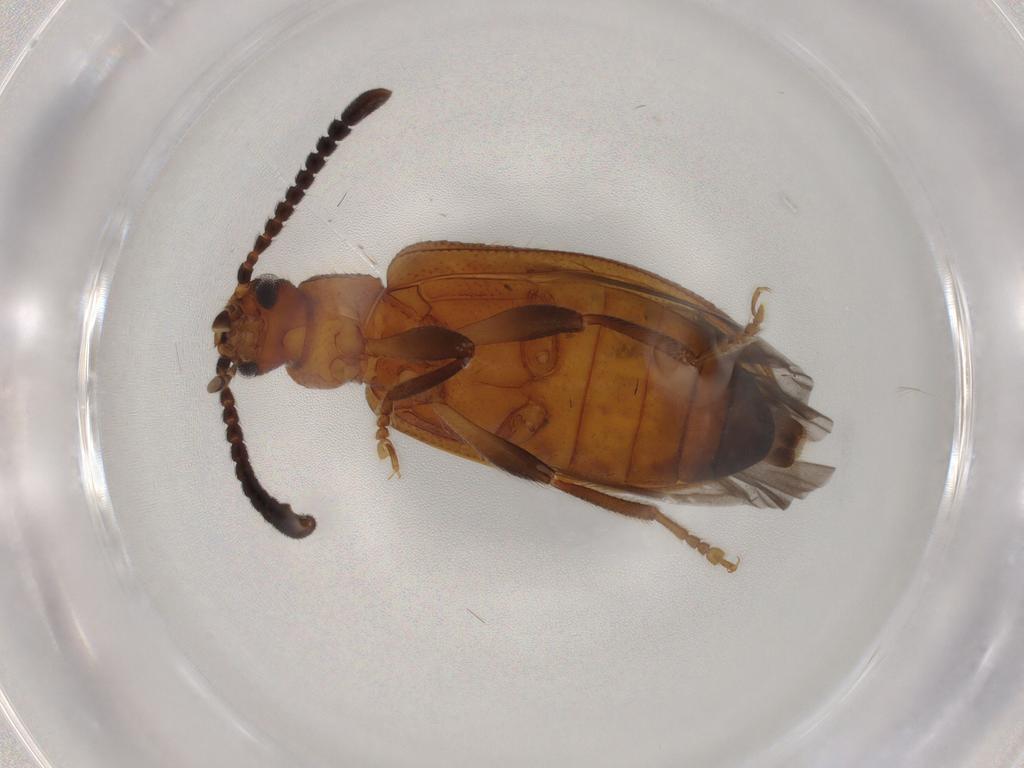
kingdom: Animalia
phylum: Arthropoda
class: Insecta
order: Coleoptera
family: Tenebrionidae
